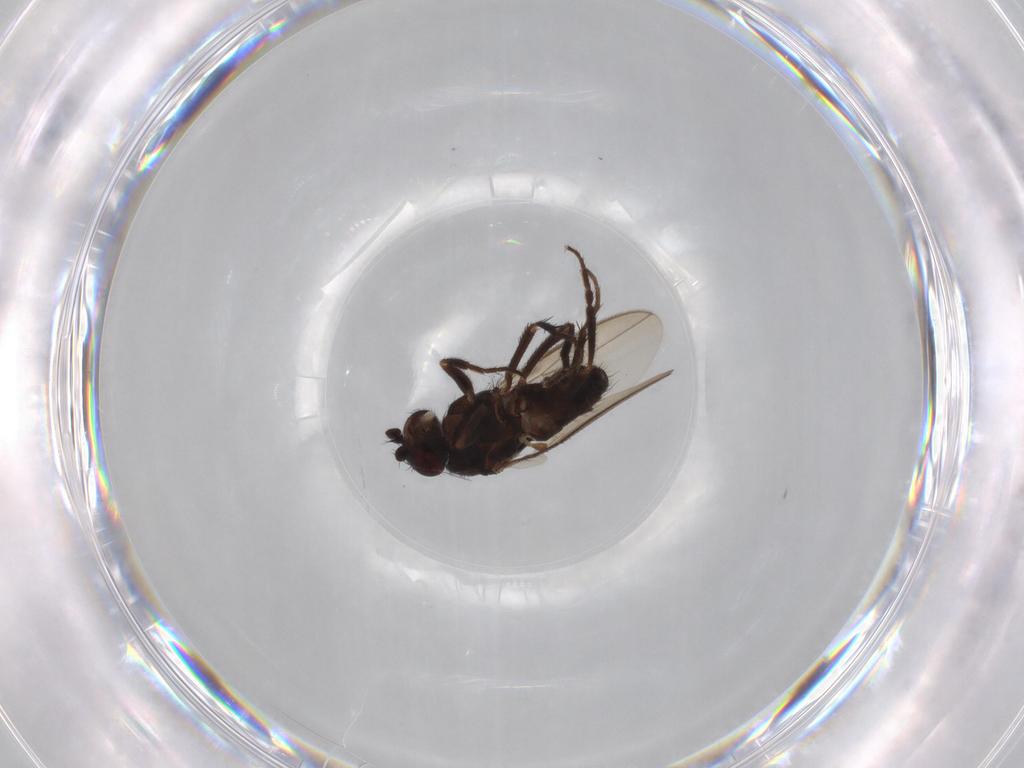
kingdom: Animalia
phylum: Arthropoda
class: Insecta
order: Diptera
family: Sphaeroceridae
